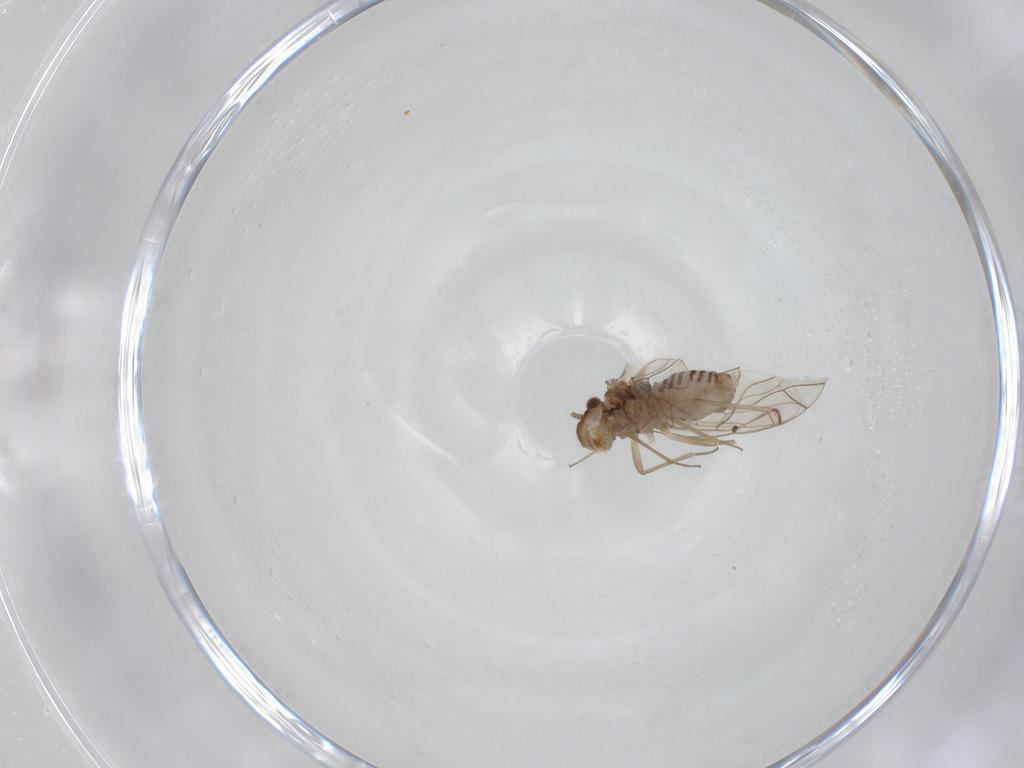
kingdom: Animalia
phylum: Arthropoda
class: Insecta
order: Psocodea
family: Lachesillidae
